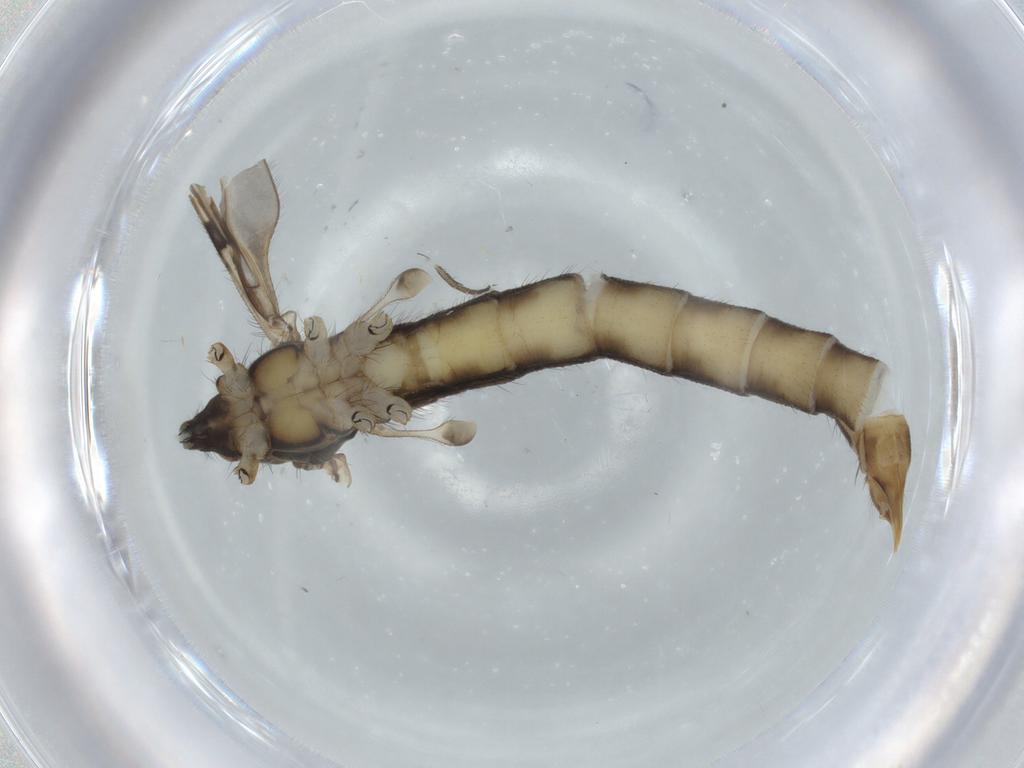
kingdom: Animalia
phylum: Arthropoda
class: Insecta
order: Diptera
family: Limoniidae
